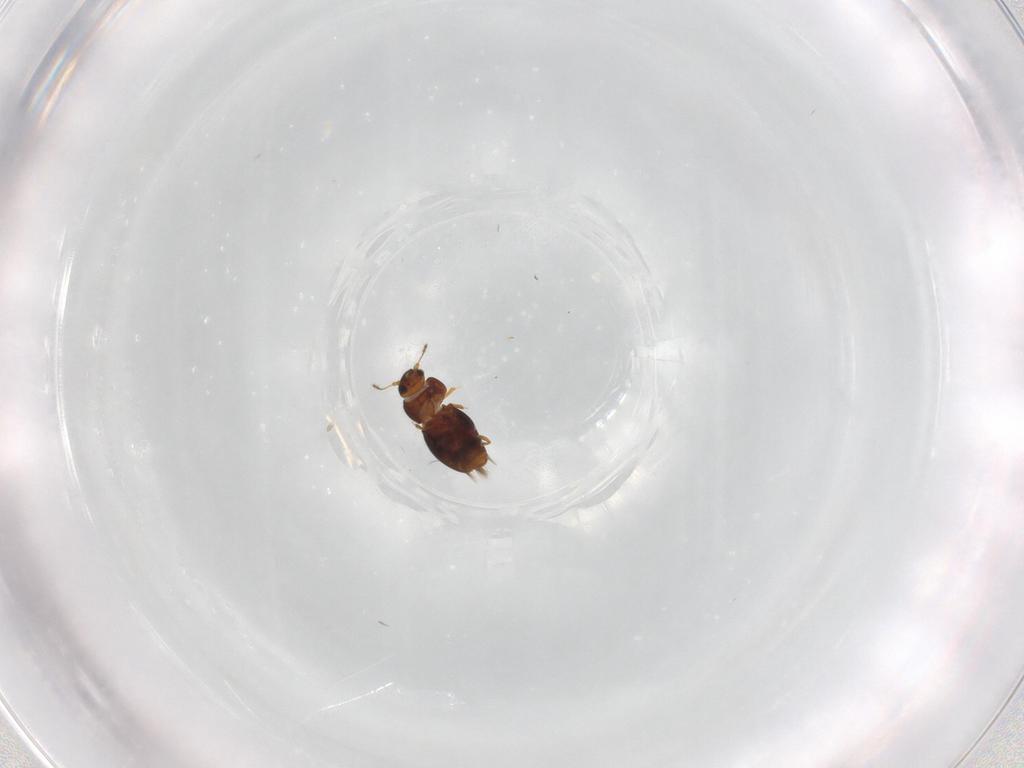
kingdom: Animalia
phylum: Arthropoda
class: Insecta
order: Coleoptera
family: Ptiliidae
